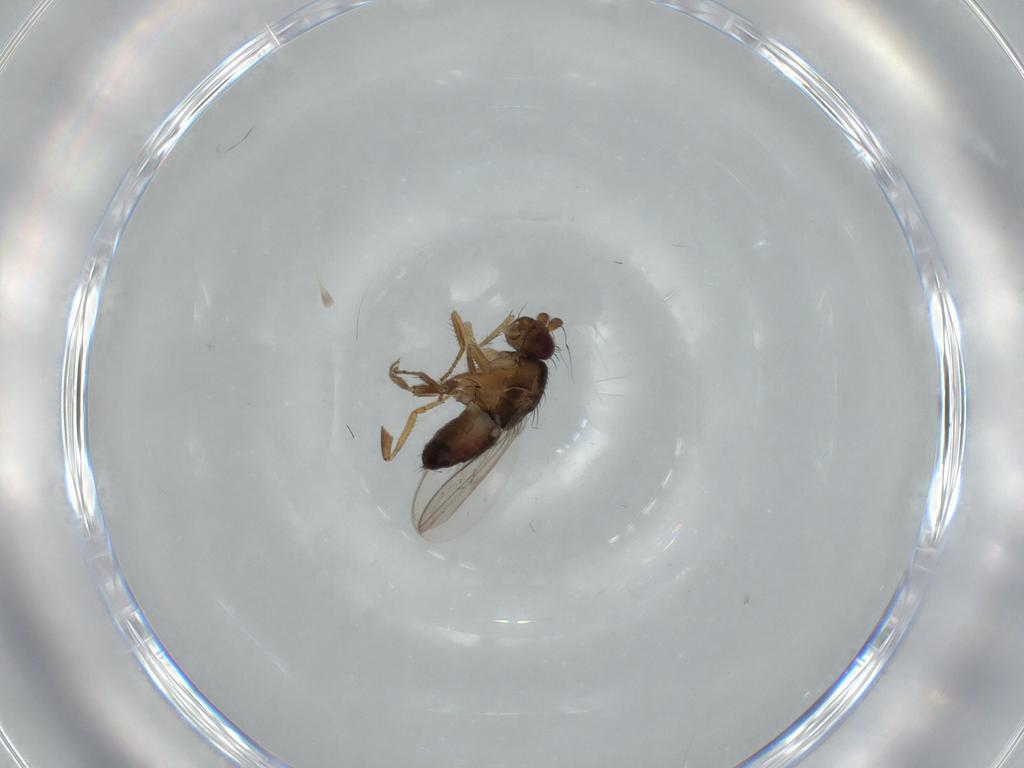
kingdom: Animalia
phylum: Arthropoda
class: Insecta
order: Diptera
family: Sphaeroceridae
